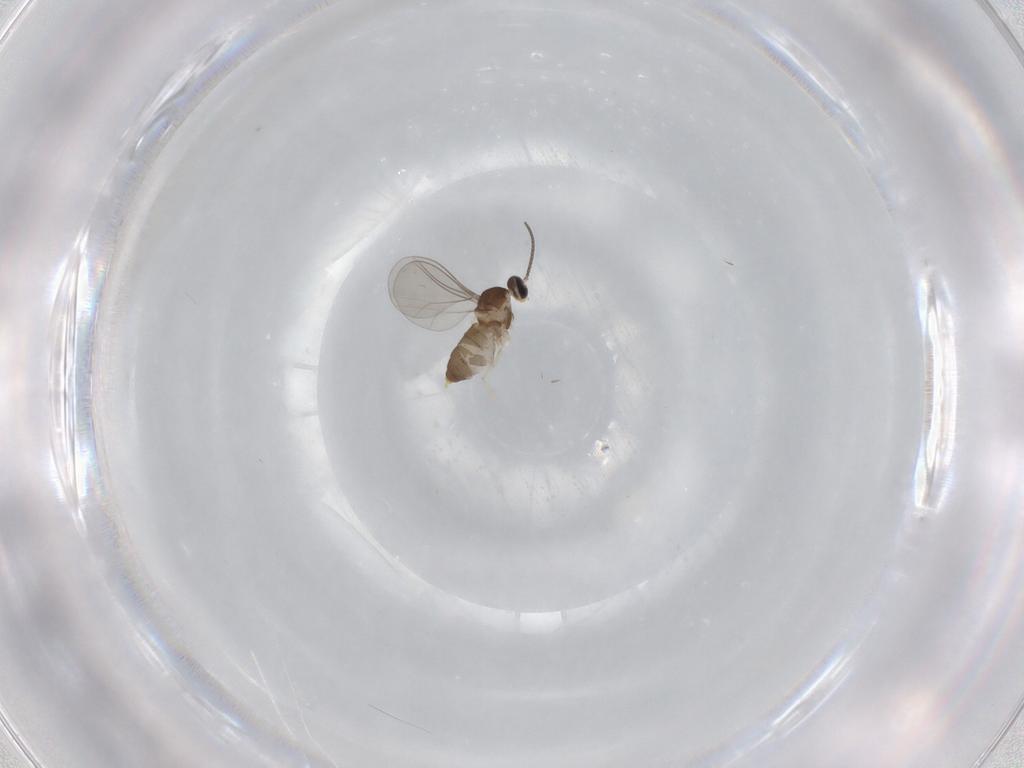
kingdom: Animalia
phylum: Arthropoda
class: Insecta
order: Diptera
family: Cecidomyiidae
